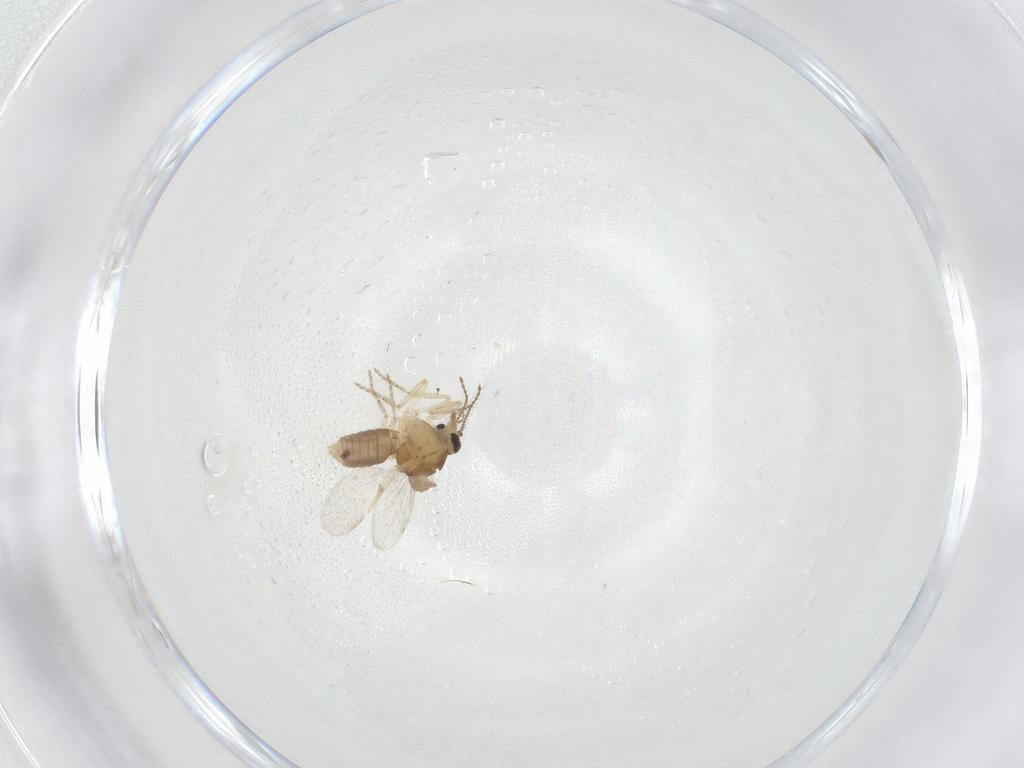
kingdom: Animalia
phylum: Arthropoda
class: Insecta
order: Diptera
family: Ceratopogonidae
